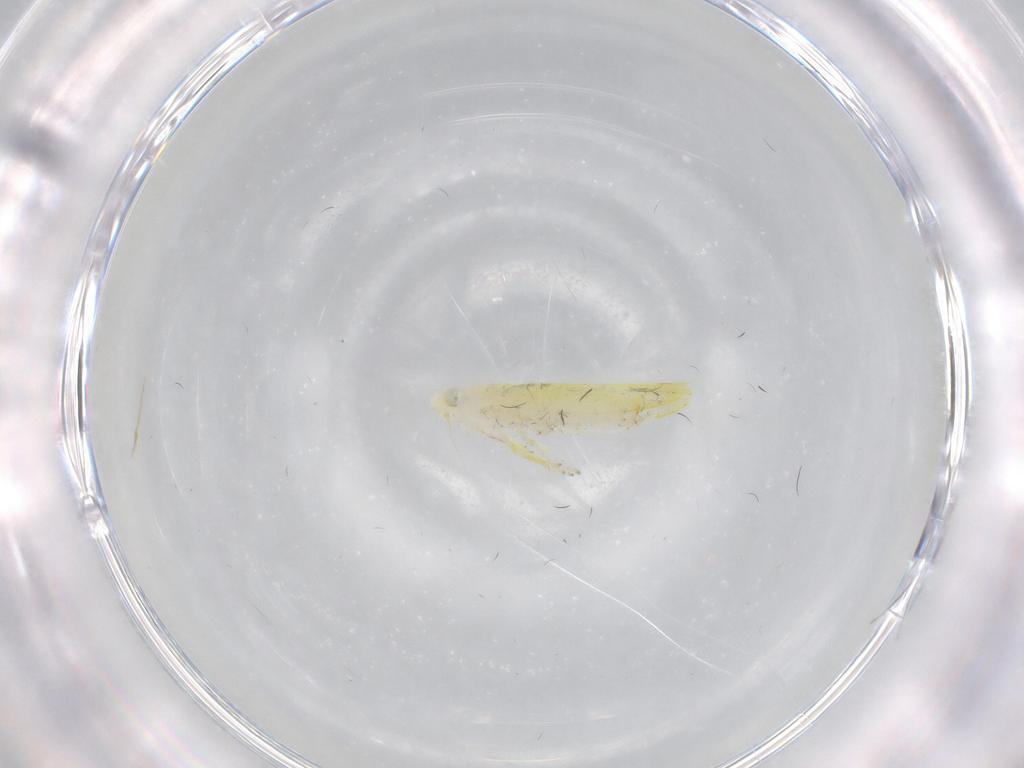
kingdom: Animalia
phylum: Arthropoda
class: Insecta
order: Hemiptera
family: Cicadellidae
